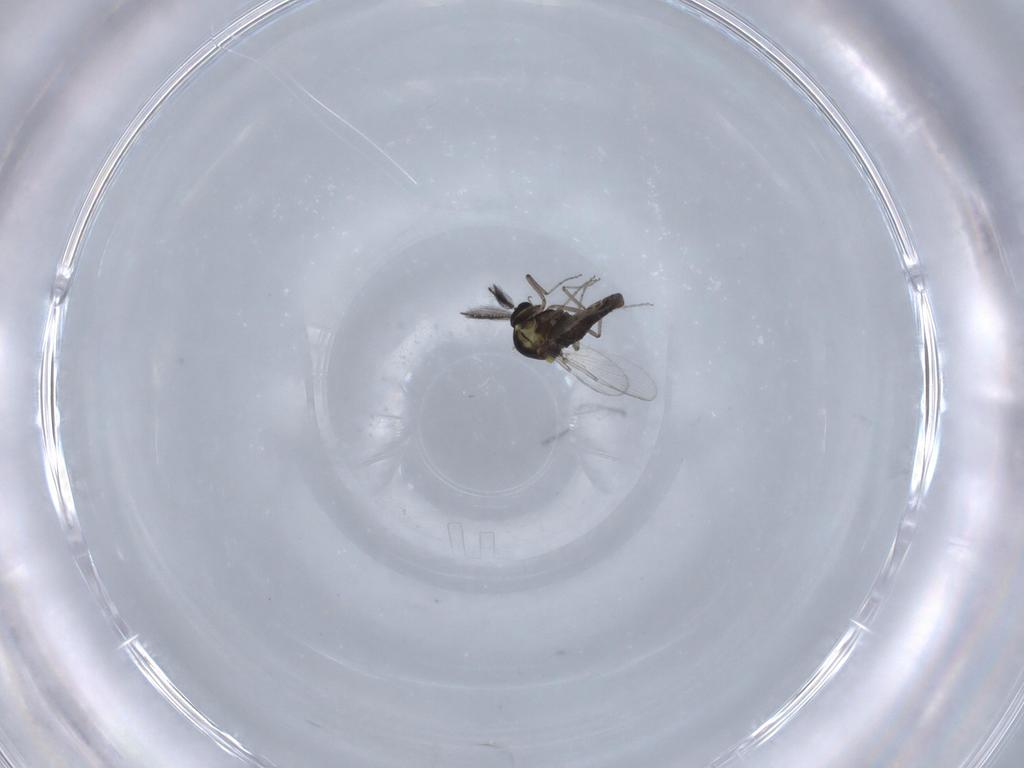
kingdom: Animalia
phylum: Arthropoda
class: Insecta
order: Diptera
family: Ceratopogonidae
